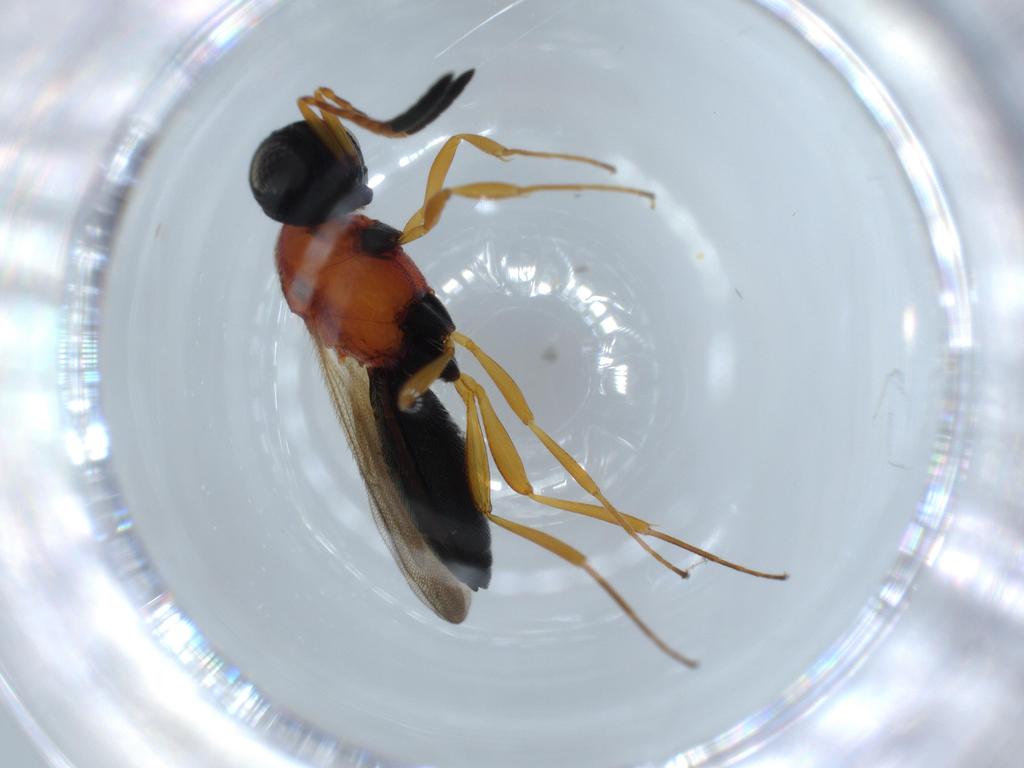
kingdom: Animalia
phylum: Arthropoda
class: Insecta
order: Hymenoptera
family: Scelionidae
